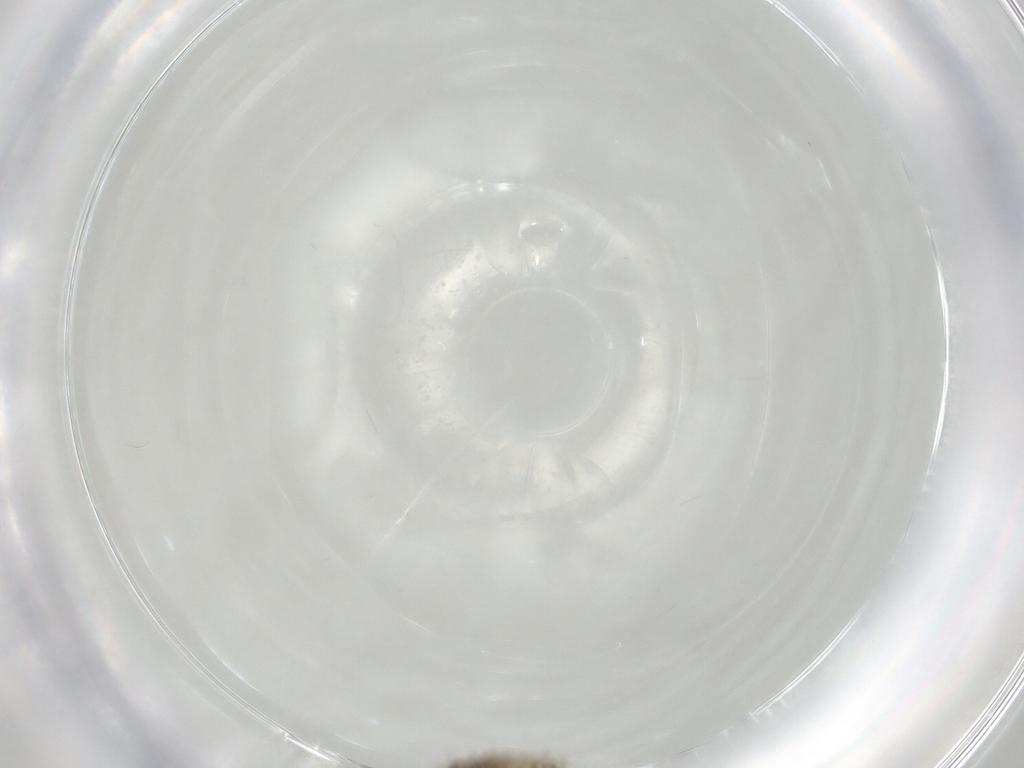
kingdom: Animalia
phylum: Arthropoda
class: Insecta
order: Diptera
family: Chironomidae
